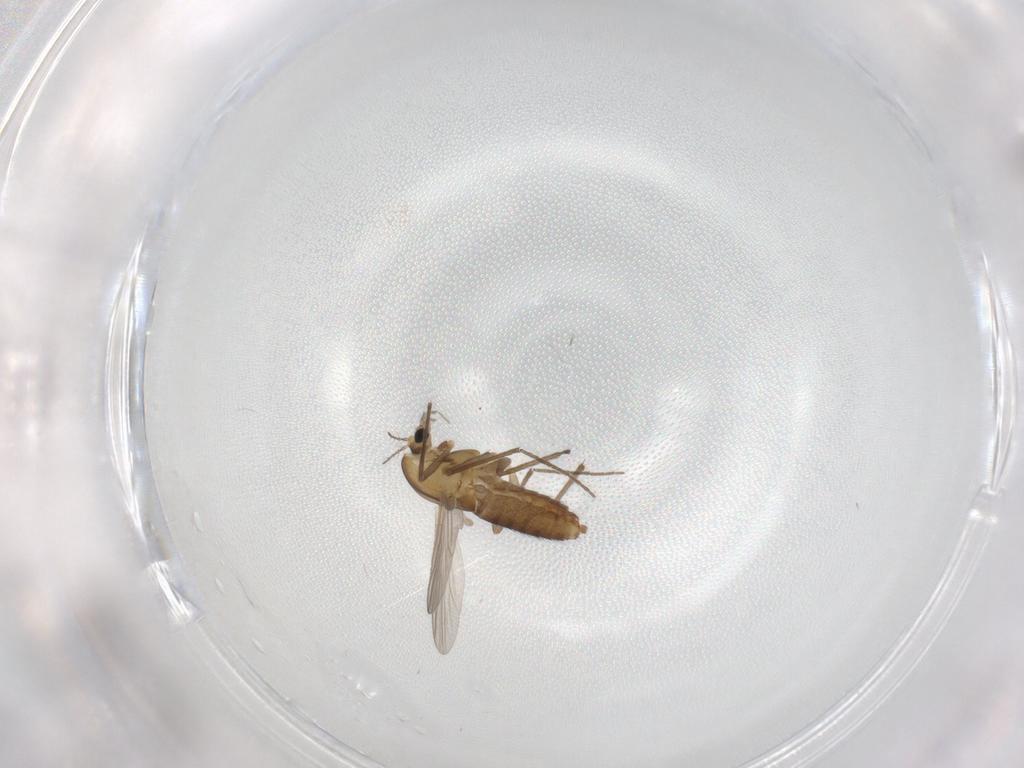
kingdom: Animalia
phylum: Arthropoda
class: Insecta
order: Diptera
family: Chironomidae
